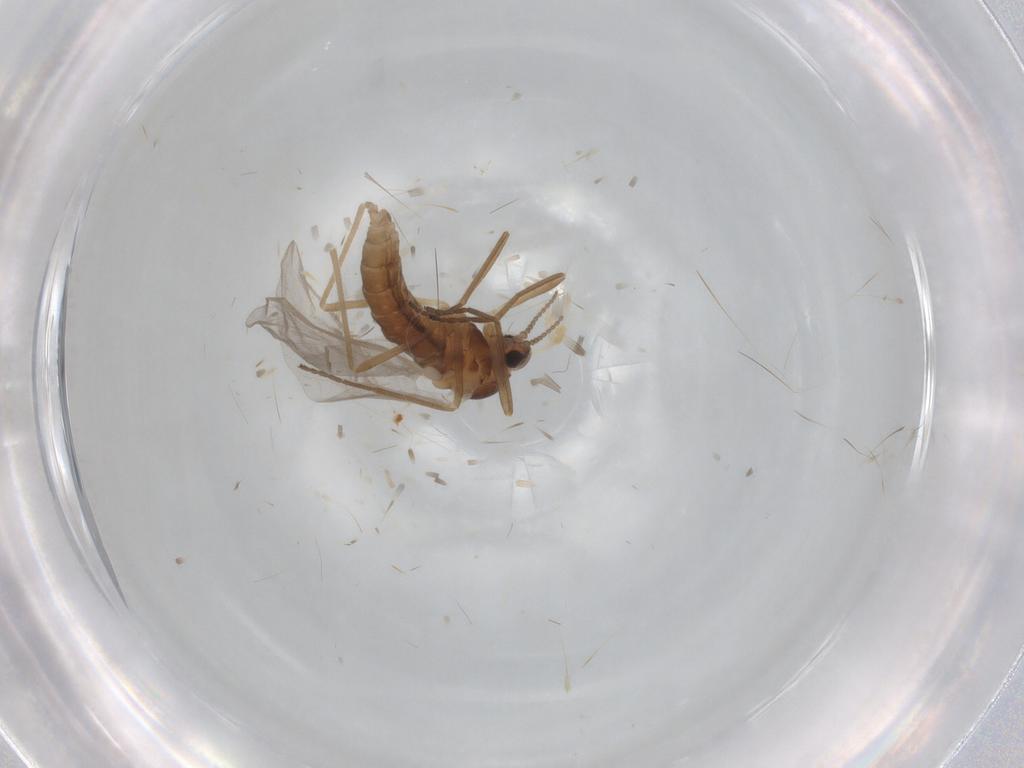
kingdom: Animalia
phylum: Arthropoda
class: Insecta
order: Diptera
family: Cecidomyiidae
